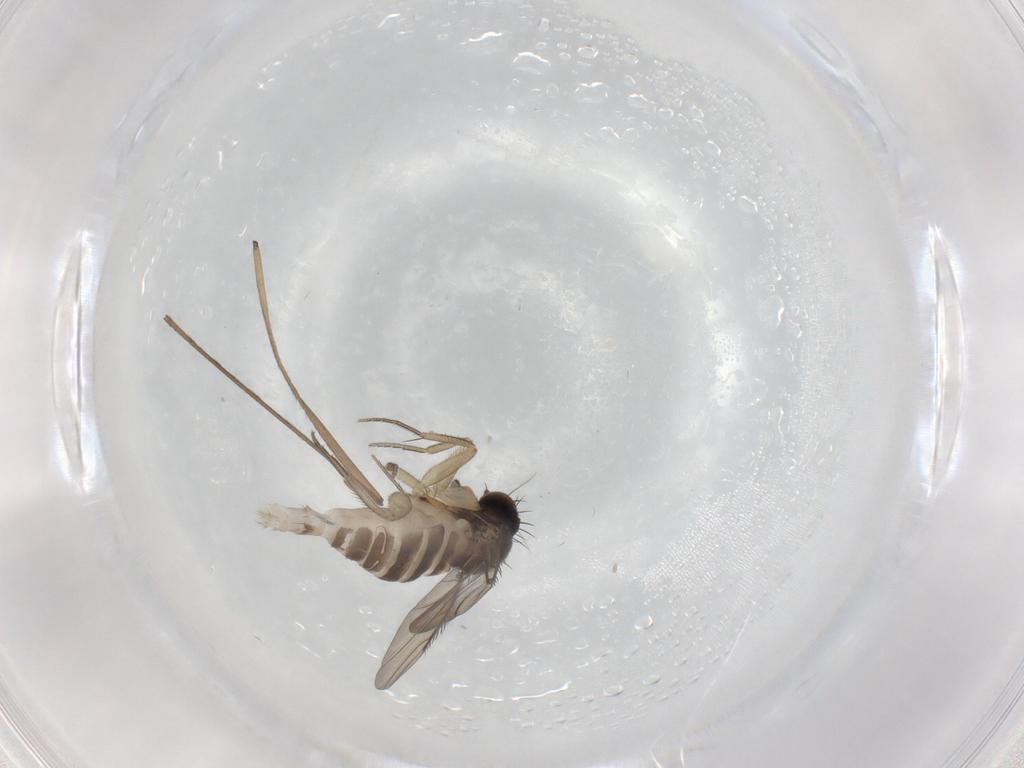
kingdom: Animalia
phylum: Arthropoda
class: Insecta
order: Diptera
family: Phoridae
